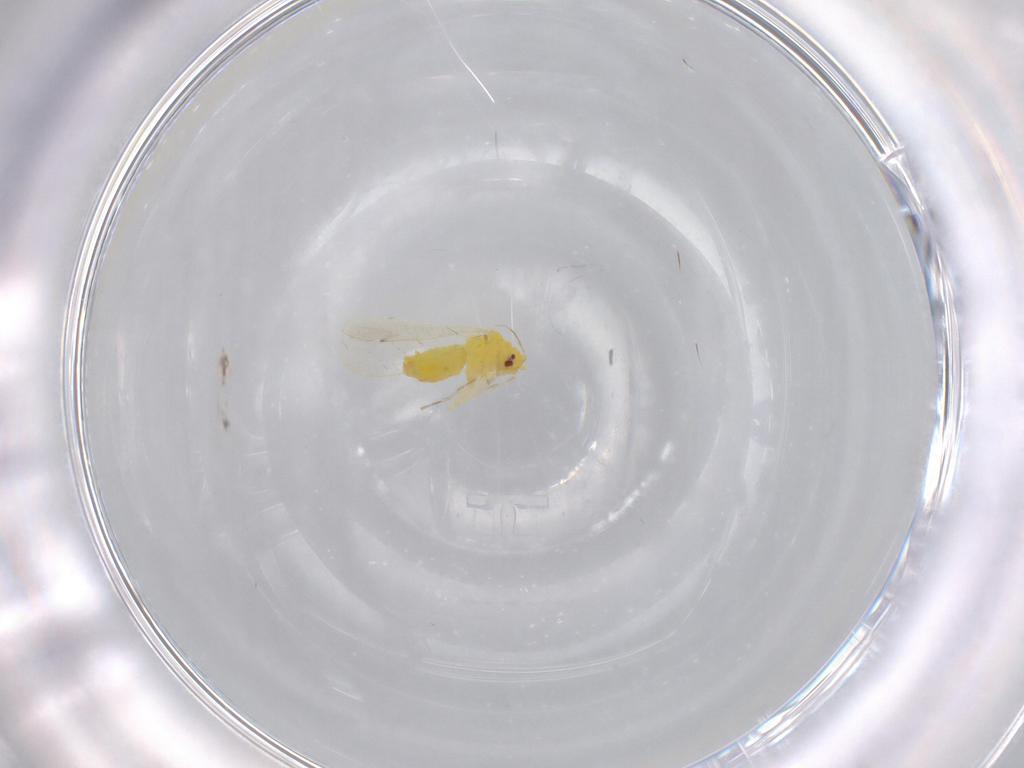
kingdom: Animalia
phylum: Arthropoda
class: Insecta
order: Hemiptera
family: Aleyrodidae
